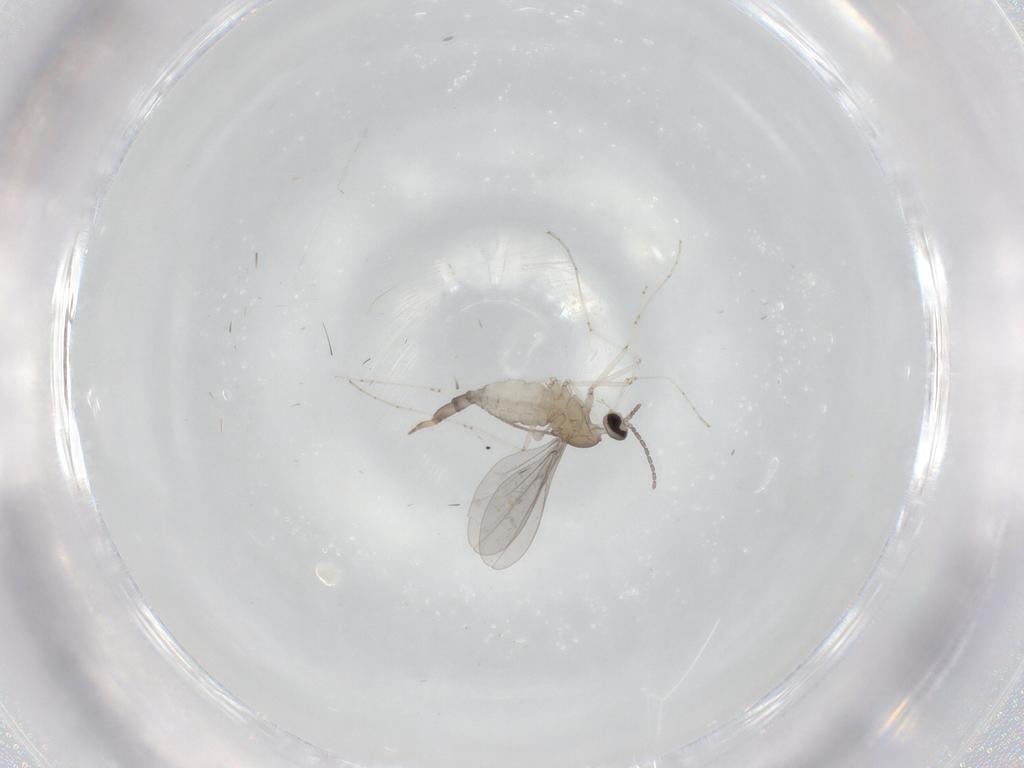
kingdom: Animalia
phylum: Arthropoda
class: Insecta
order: Diptera
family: Cecidomyiidae
